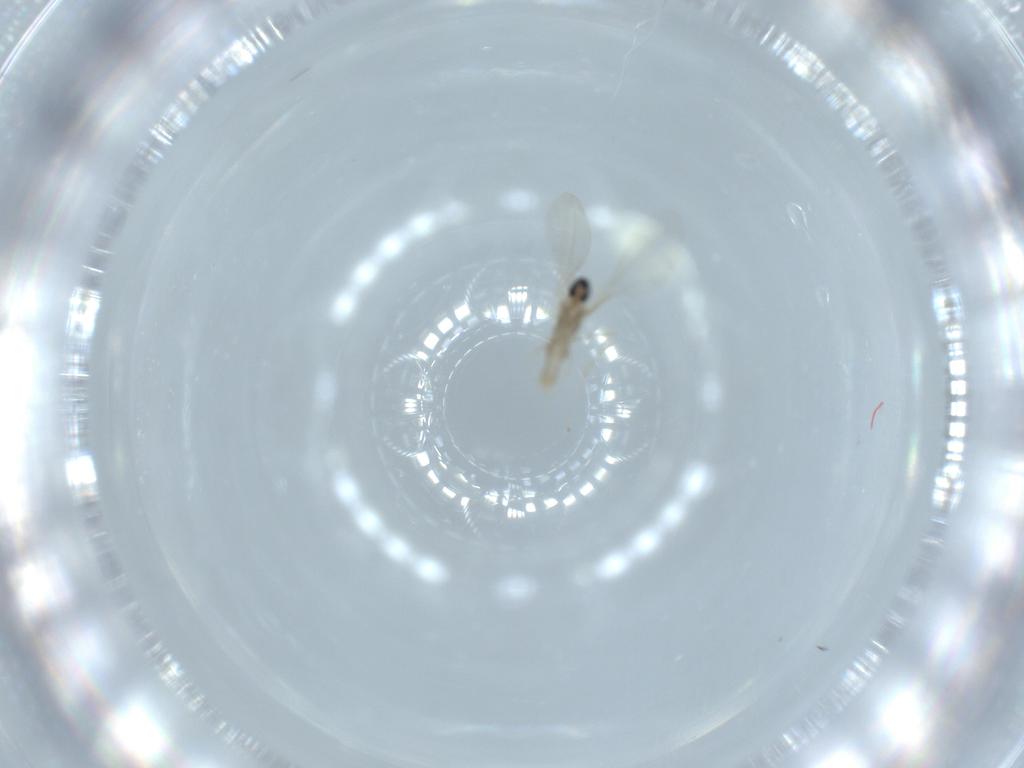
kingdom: Animalia
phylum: Arthropoda
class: Insecta
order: Diptera
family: Cecidomyiidae
